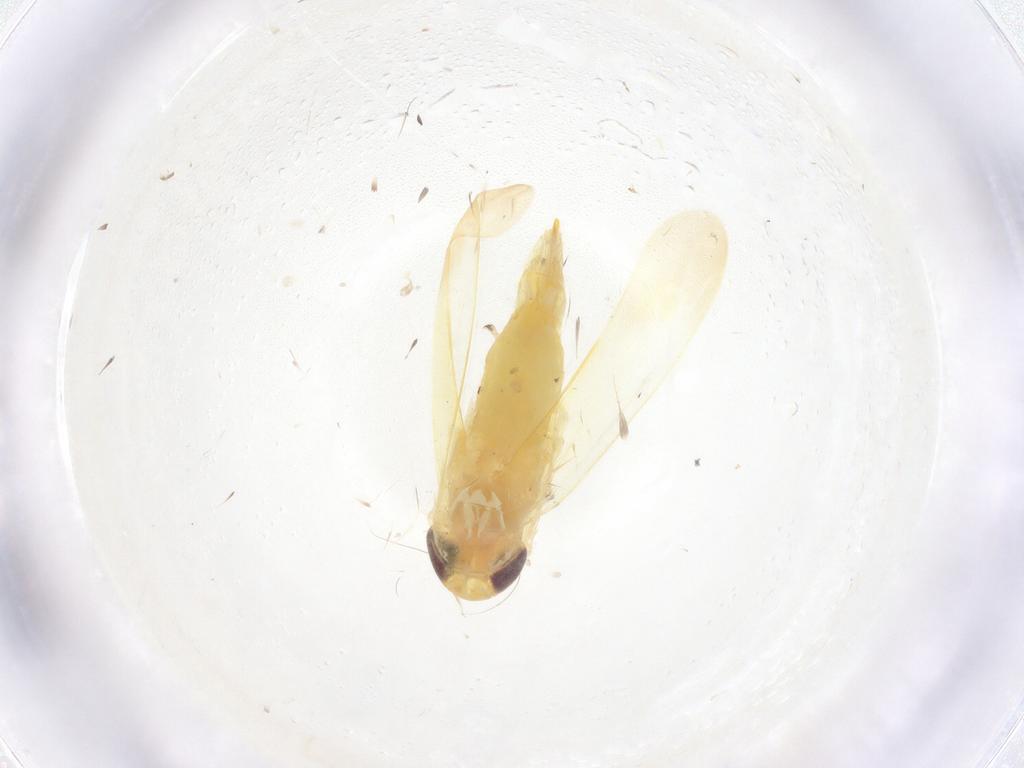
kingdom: Animalia
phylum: Arthropoda
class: Insecta
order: Hemiptera
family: Cicadellidae
